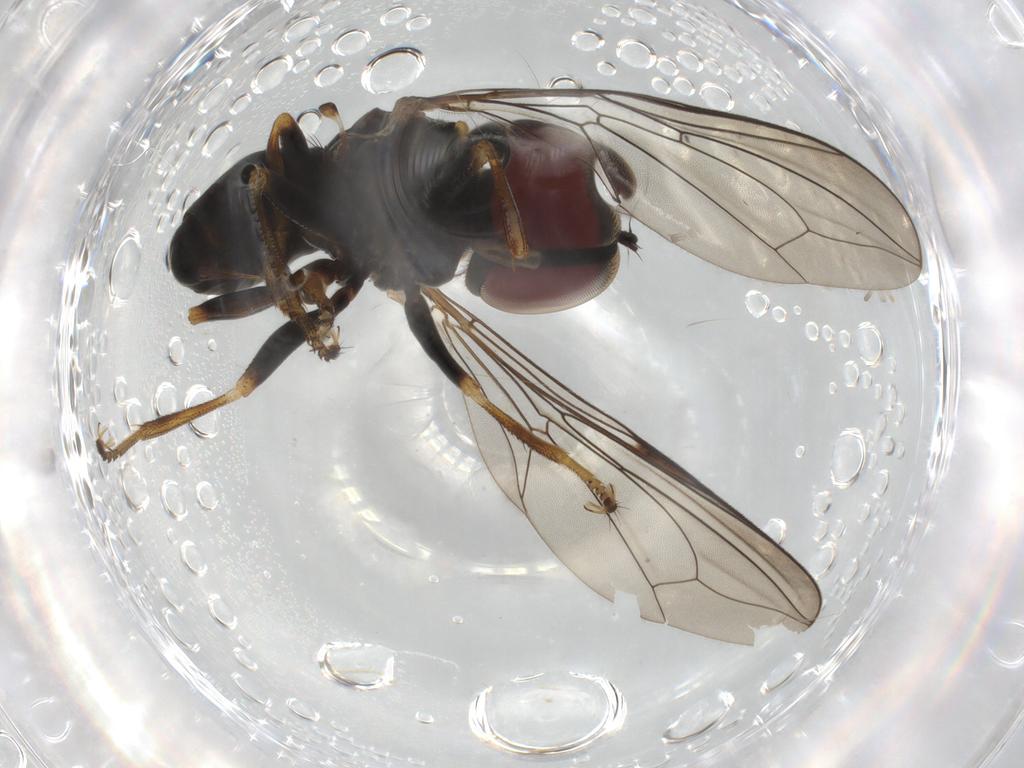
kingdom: Animalia
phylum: Arthropoda
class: Insecta
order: Diptera
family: Pipunculidae
